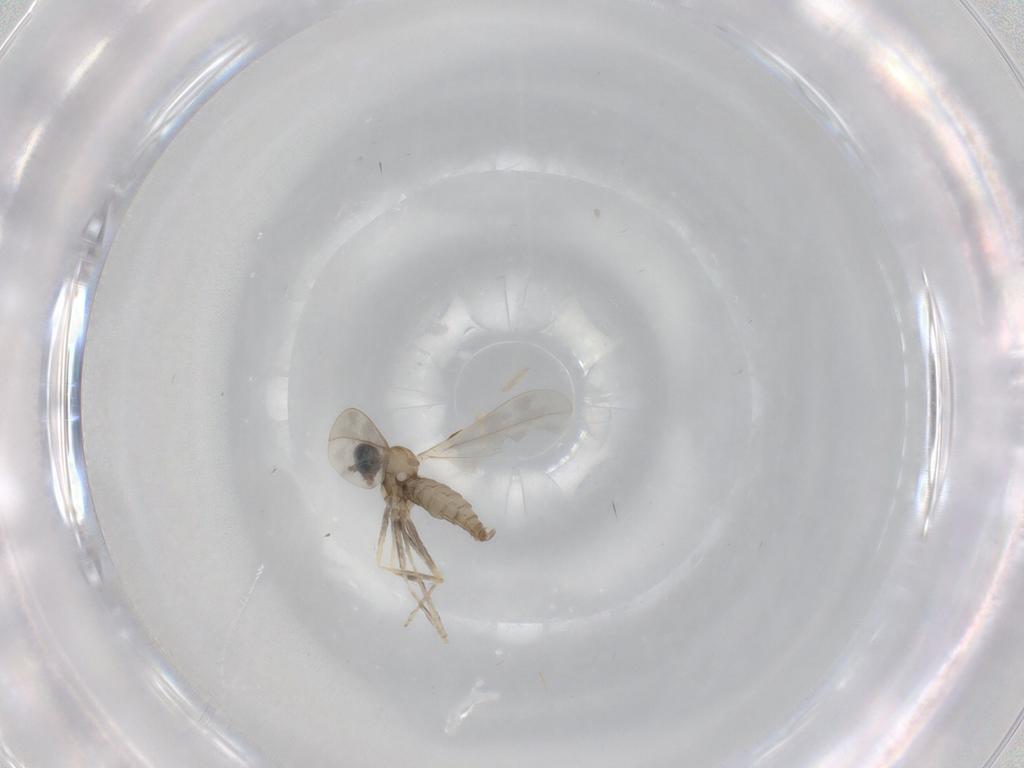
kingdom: Animalia
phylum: Arthropoda
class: Insecta
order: Diptera
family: Cecidomyiidae
